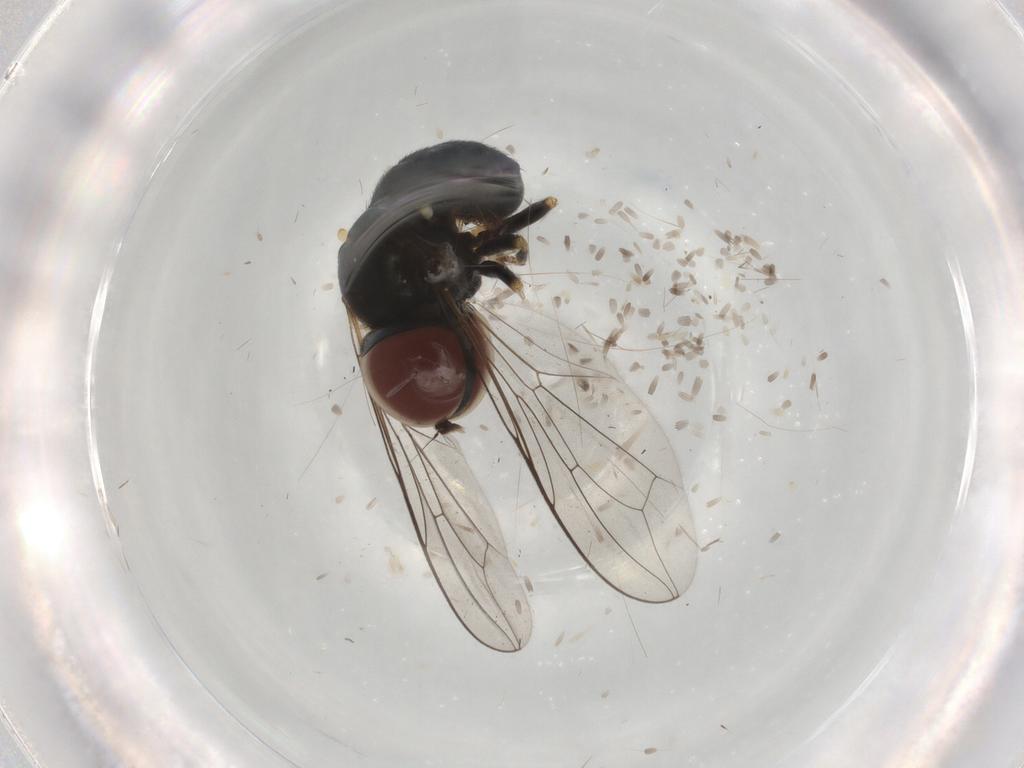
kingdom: Animalia
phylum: Arthropoda
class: Insecta
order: Diptera
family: Pipunculidae
